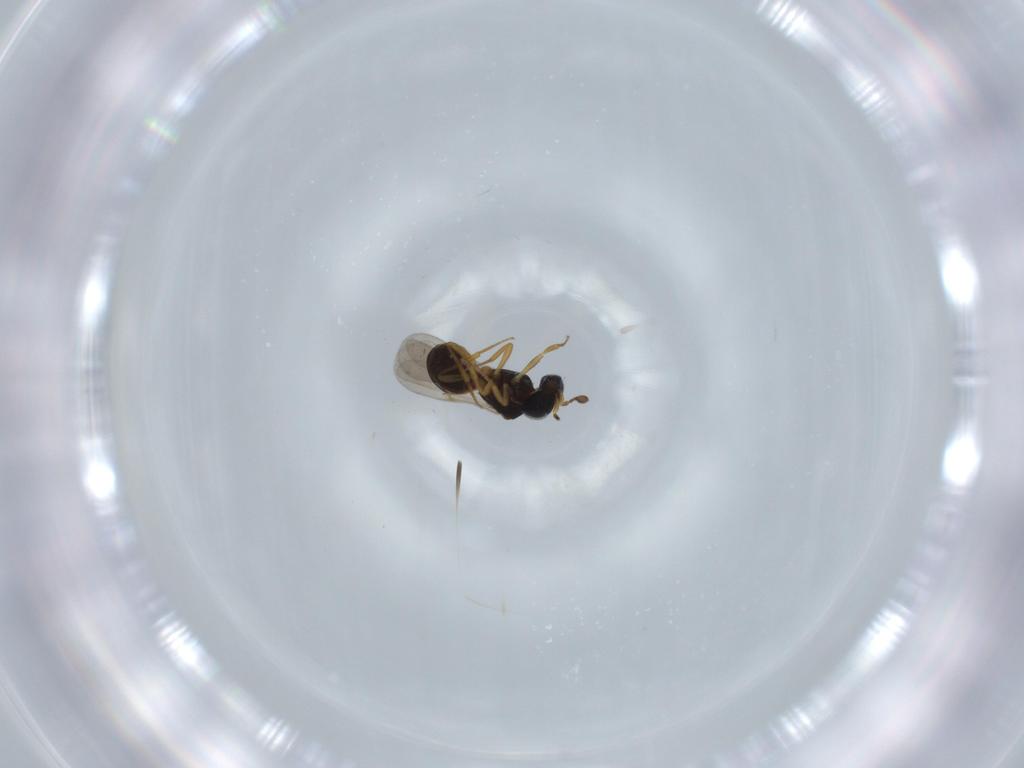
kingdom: Animalia
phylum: Arthropoda
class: Insecta
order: Hymenoptera
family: Scelionidae
